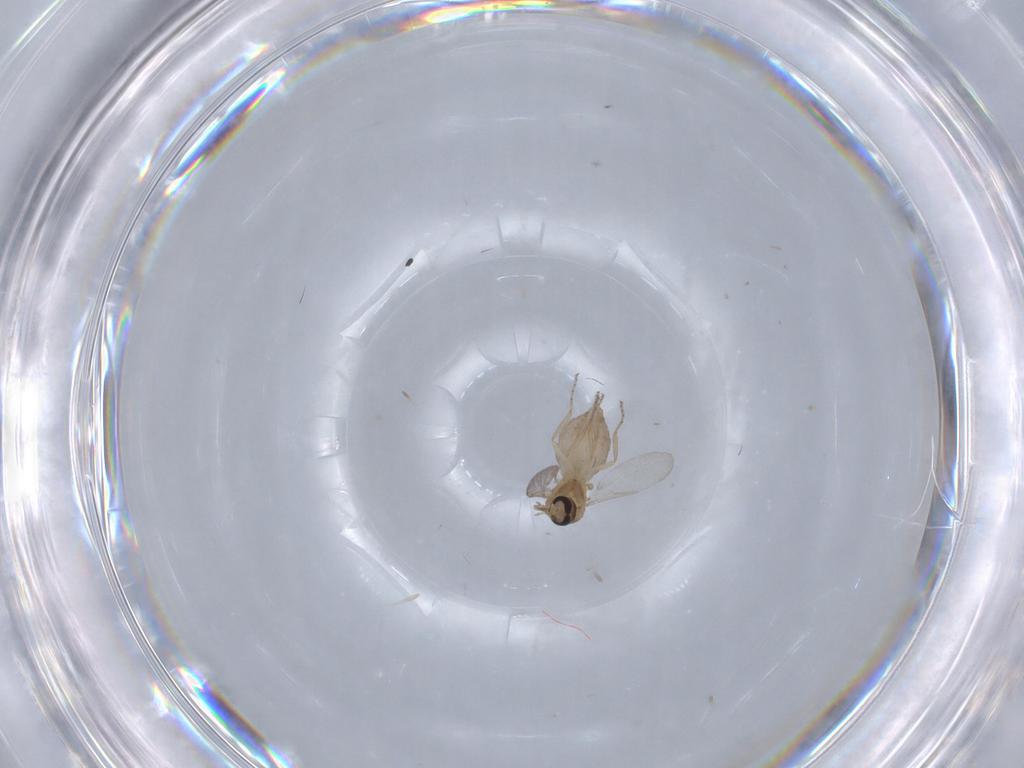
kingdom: Animalia
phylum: Arthropoda
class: Insecta
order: Diptera
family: Ceratopogonidae
